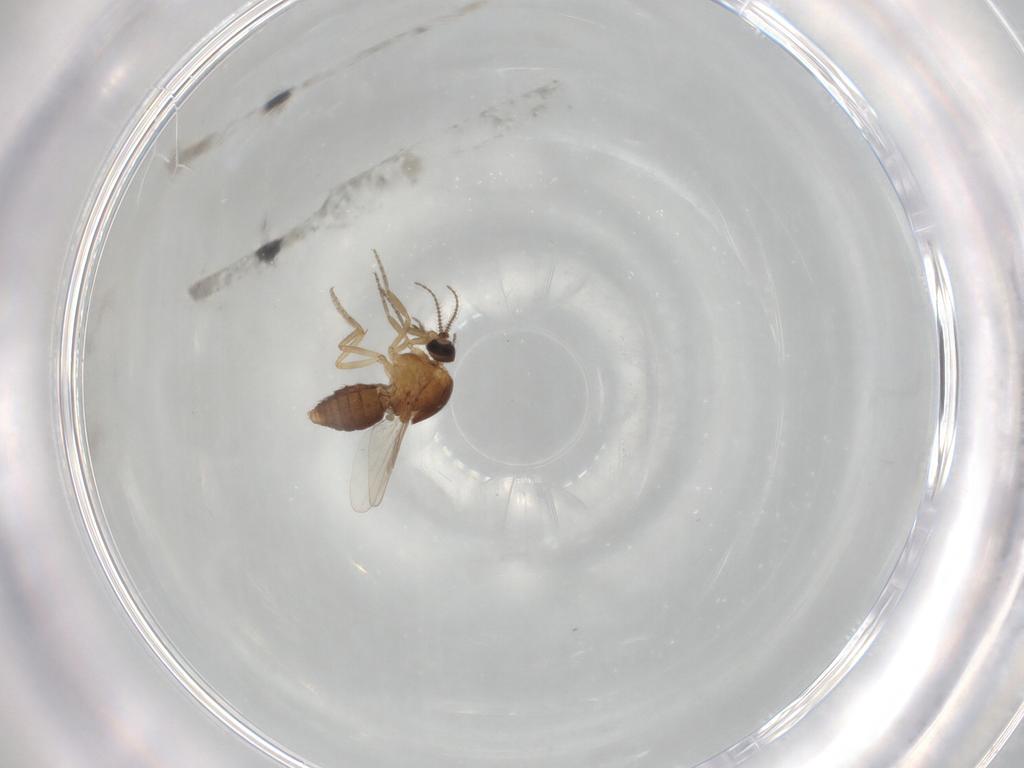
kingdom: Animalia
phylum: Arthropoda
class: Insecta
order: Diptera
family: Ceratopogonidae
